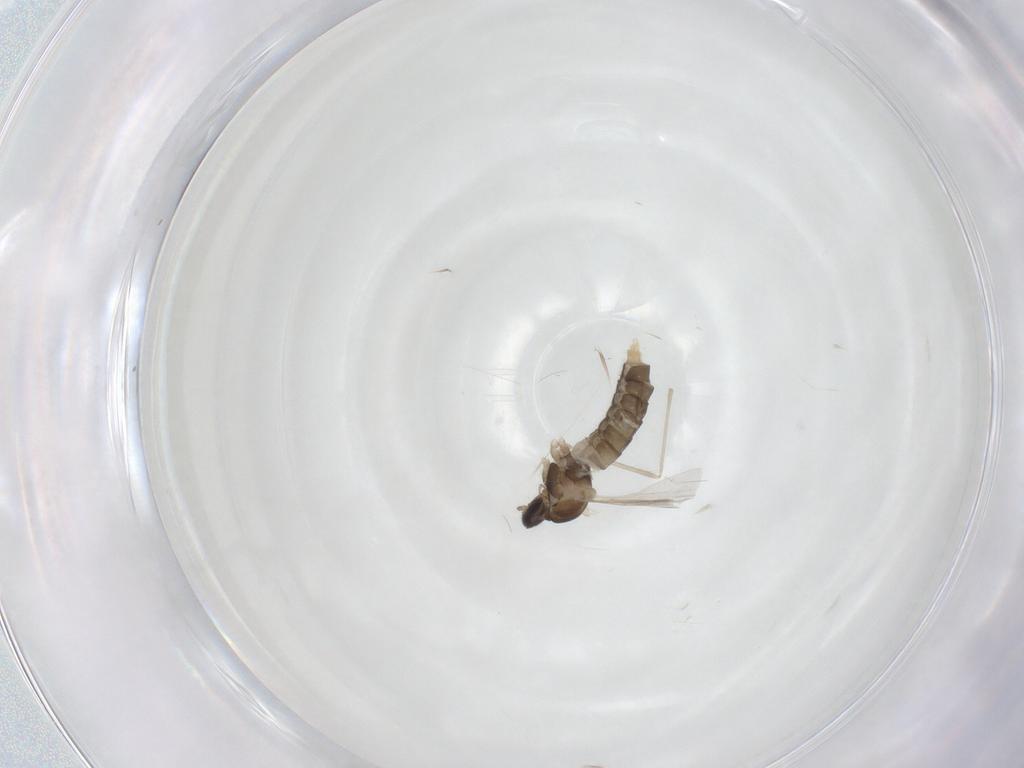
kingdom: Animalia
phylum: Arthropoda
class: Insecta
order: Diptera
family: Cecidomyiidae
